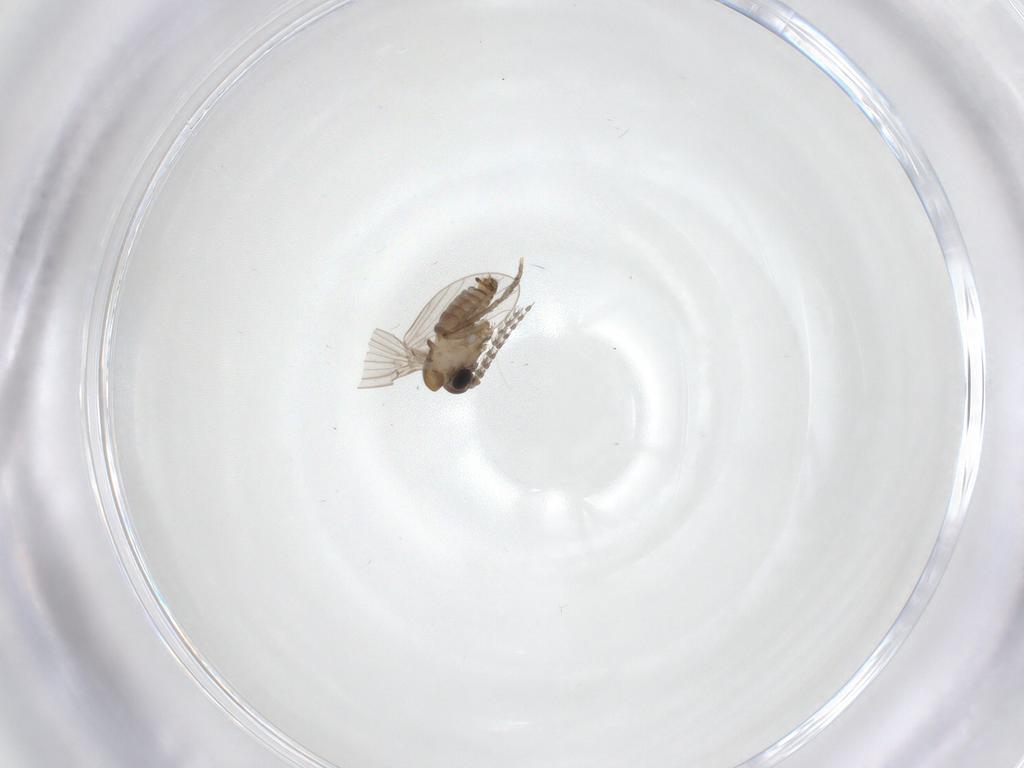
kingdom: Animalia
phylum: Arthropoda
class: Insecta
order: Diptera
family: Psychodidae
